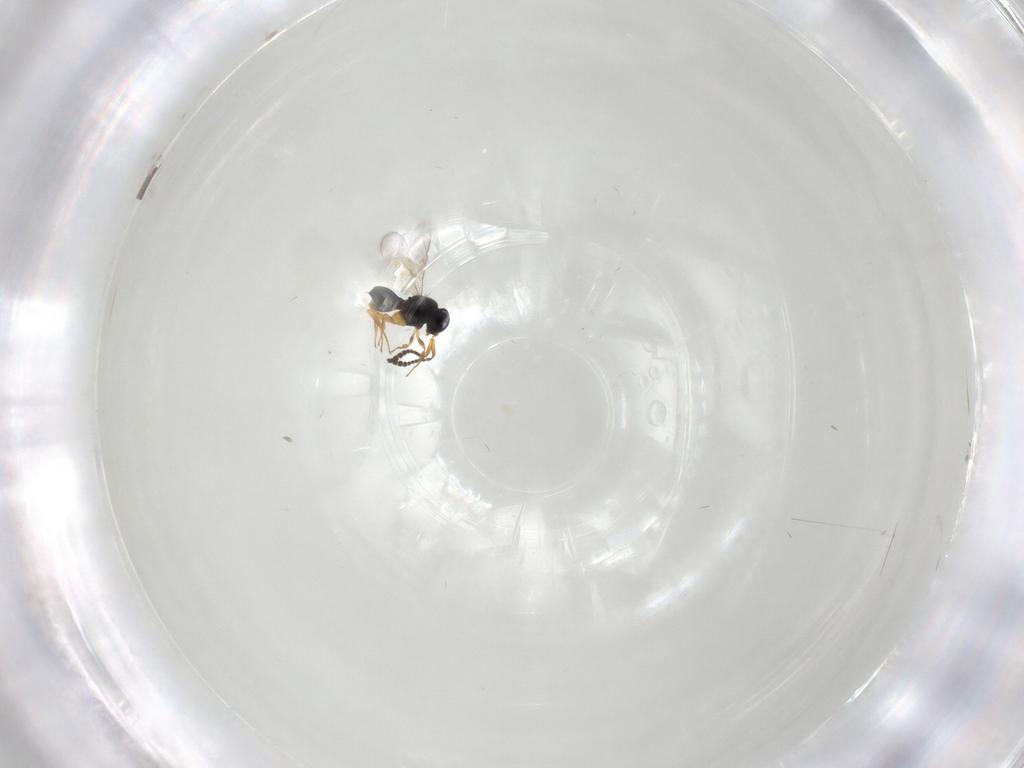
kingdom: Animalia
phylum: Arthropoda
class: Insecta
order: Hymenoptera
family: Scelionidae
